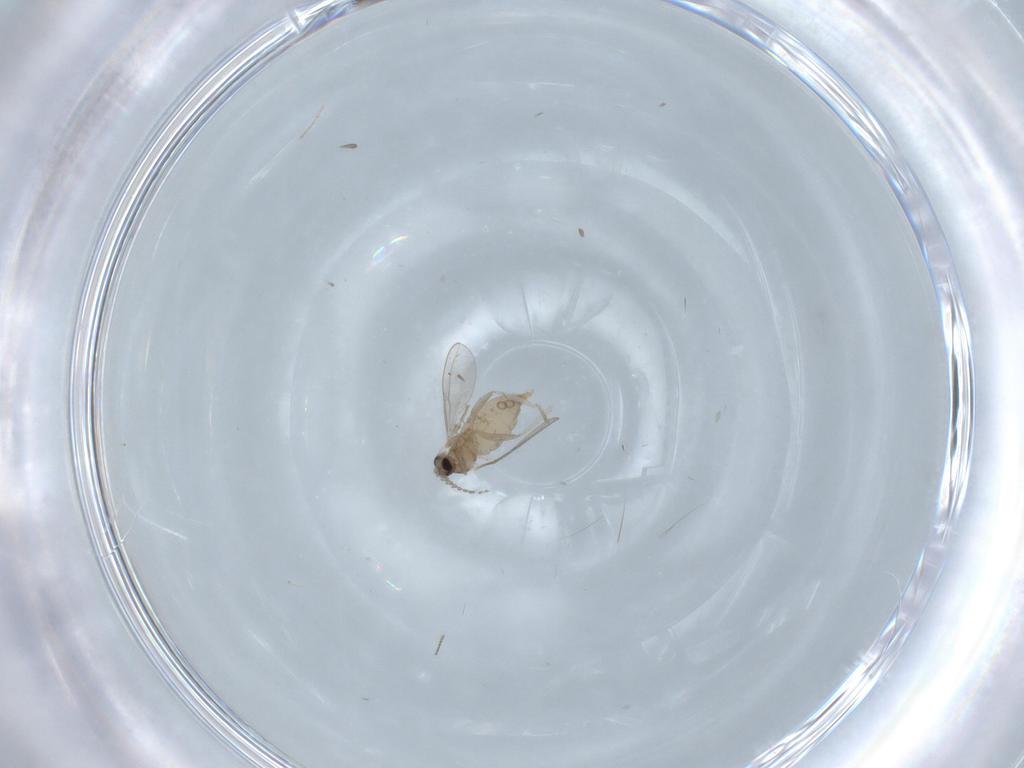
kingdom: Animalia
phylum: Arthropoda
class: Insecta
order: Diptera
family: Cecidomyiidae
